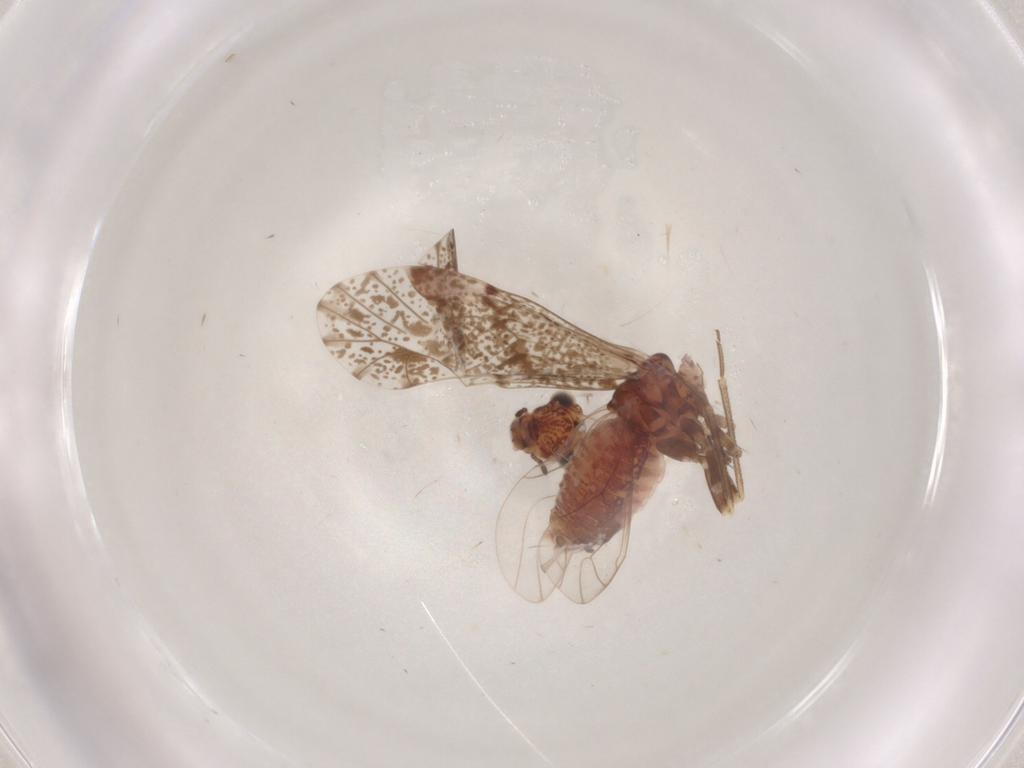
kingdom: Animalia
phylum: Arthropoda
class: Insecta
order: Psocodea
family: Psocidae
